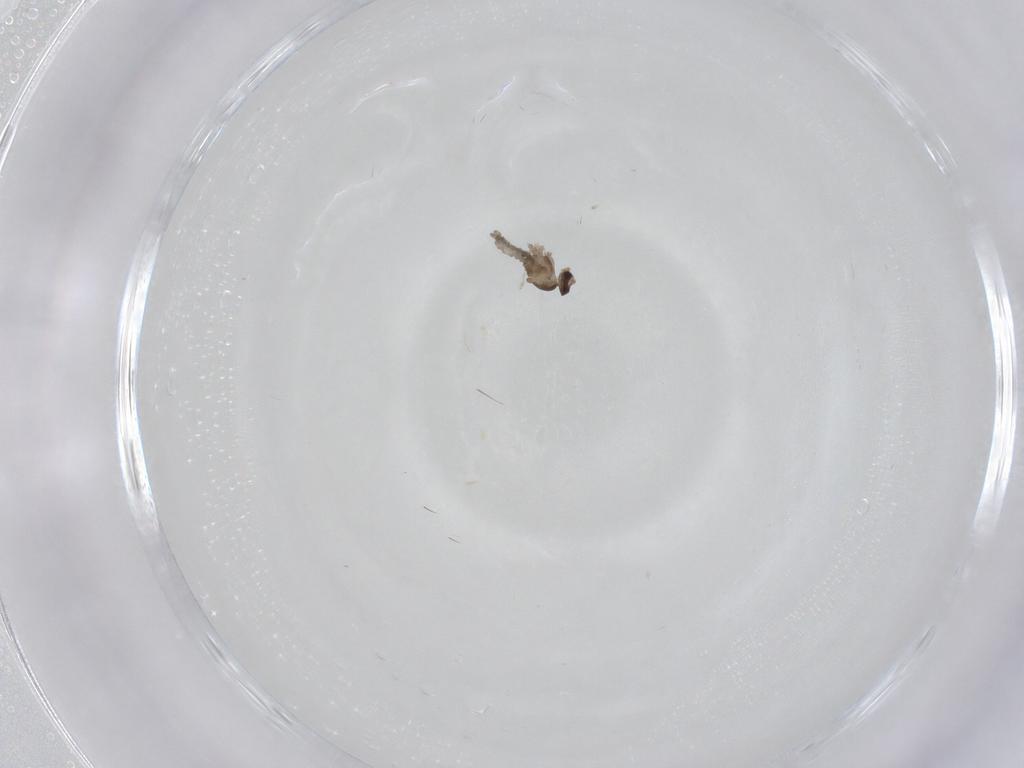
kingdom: Animalia
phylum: Arthropoda
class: Insecta
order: Diptera
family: Cecidomyiidae
